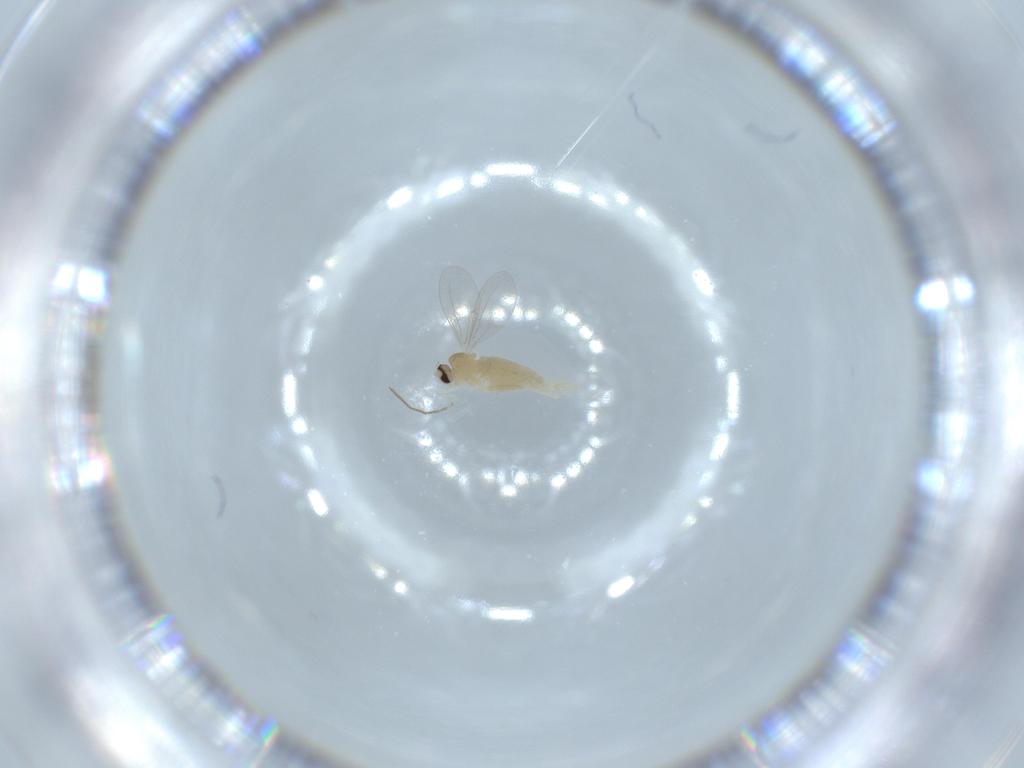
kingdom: Animalia
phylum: Arthropoda
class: Insecta
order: Diptera
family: Cecidomyiidae
